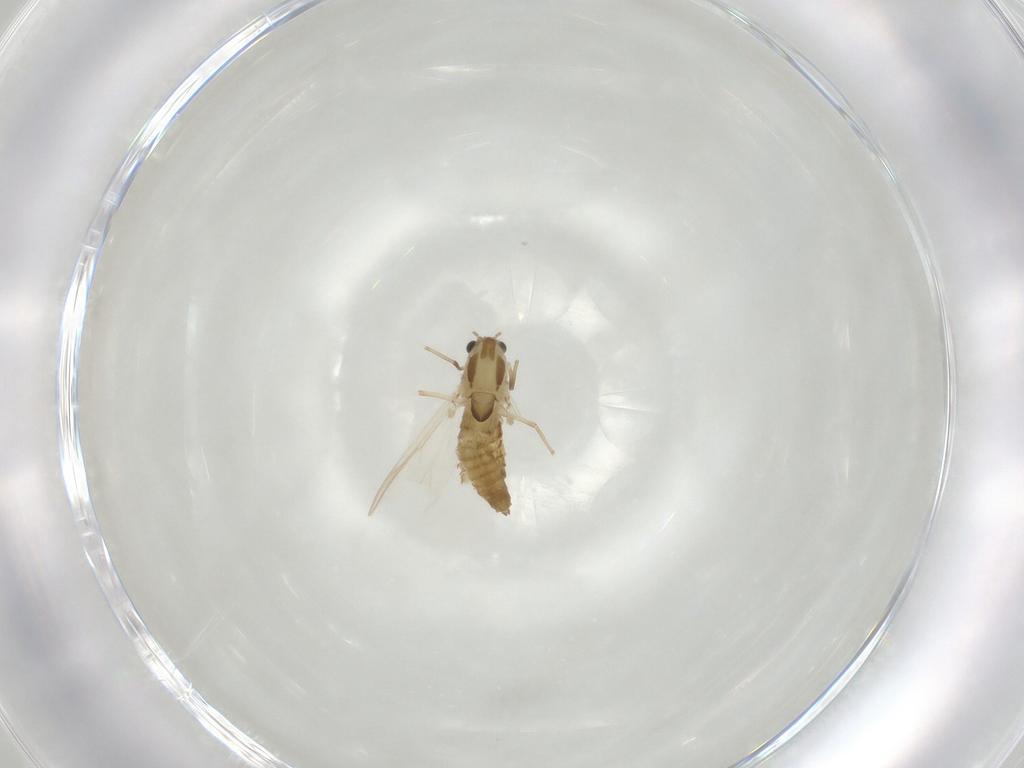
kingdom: Animalia
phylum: Arthropoda
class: Insecta
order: Diptera
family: Chironomidae
